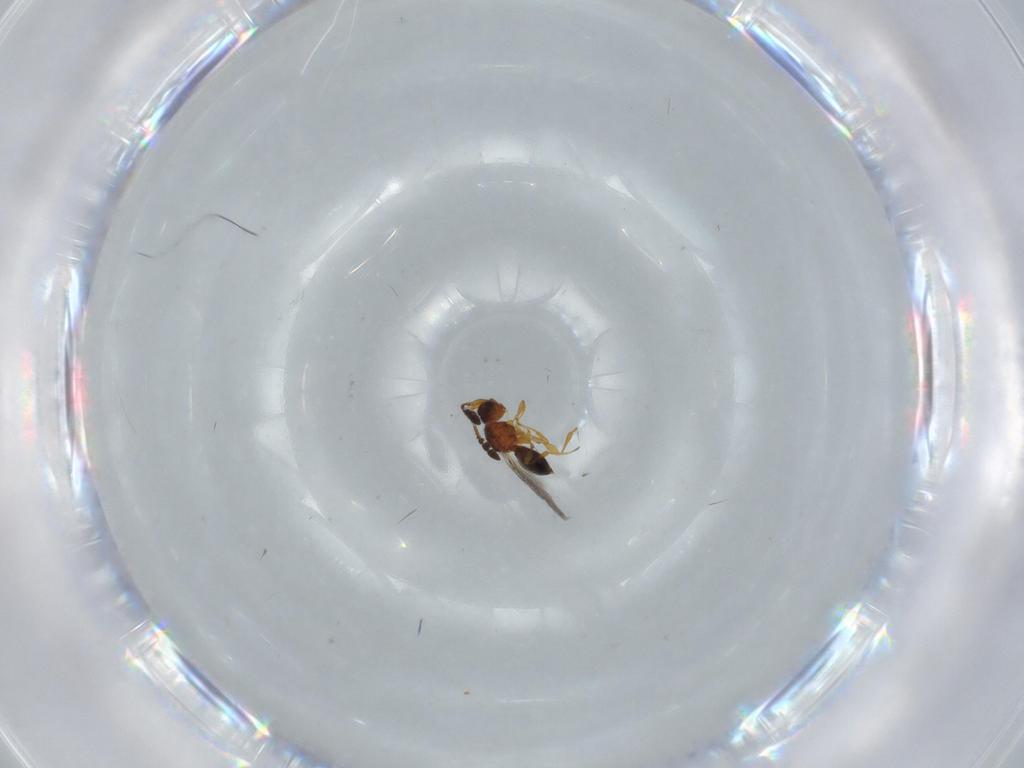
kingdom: Animalia
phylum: Arthropoda
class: Insecta
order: Hymenoptera
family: Diapriidae
